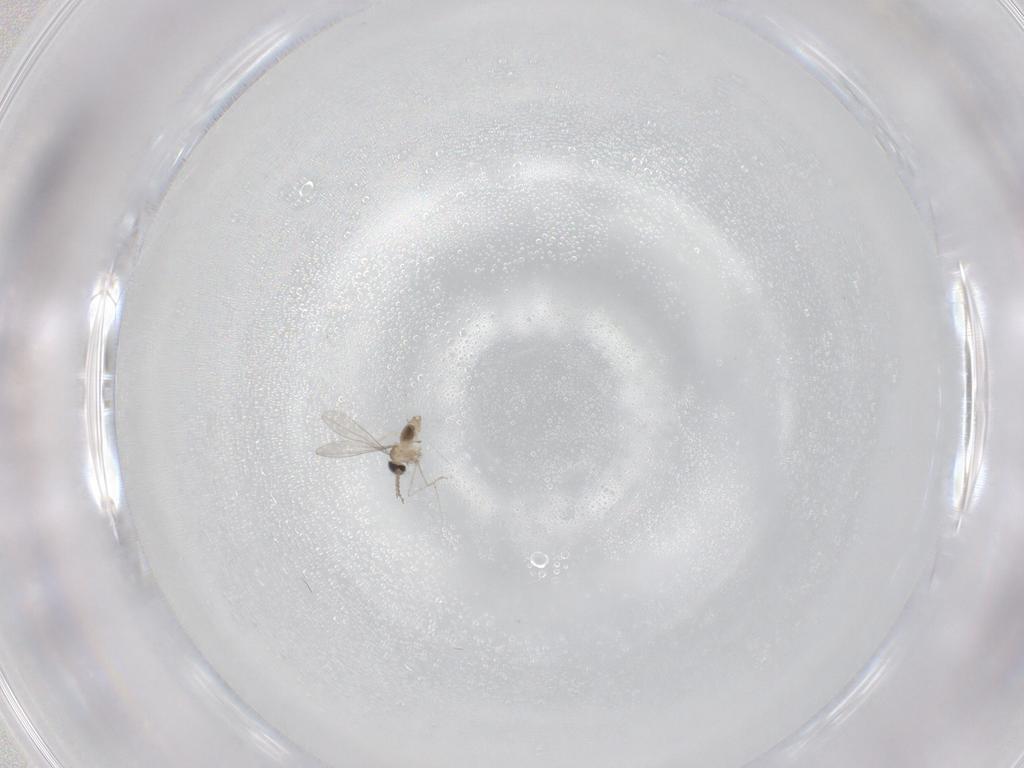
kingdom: Animalia
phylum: Arthropoda
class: Insecta
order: Diptera
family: Cecidomyiidae
